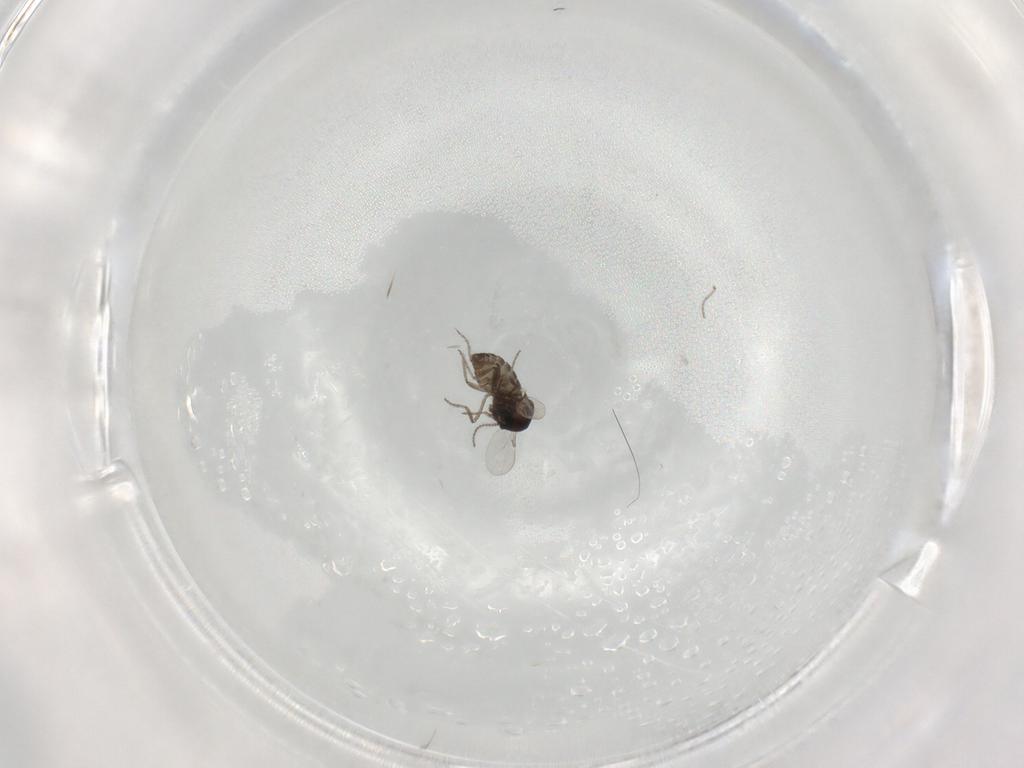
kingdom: Animalia
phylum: Arthropoda
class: Insecta
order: Diptera
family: Ceratopogonidae
